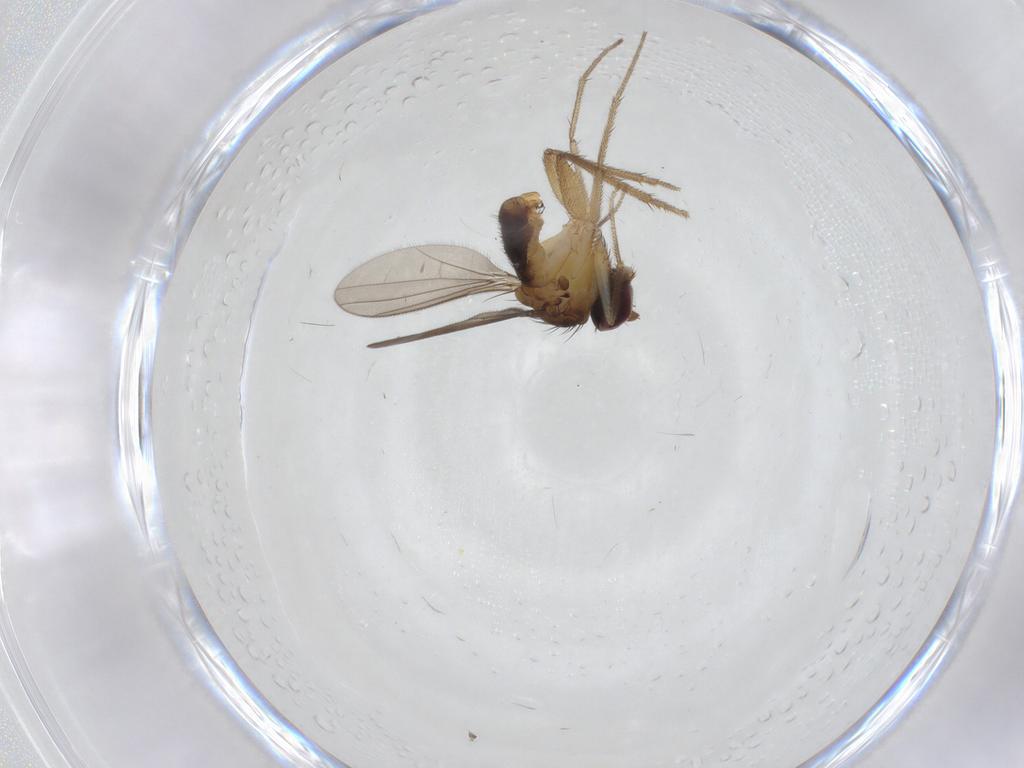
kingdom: Animalia
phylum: Arthropoda
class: Insecta
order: Diptera
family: Dolichopodidae
